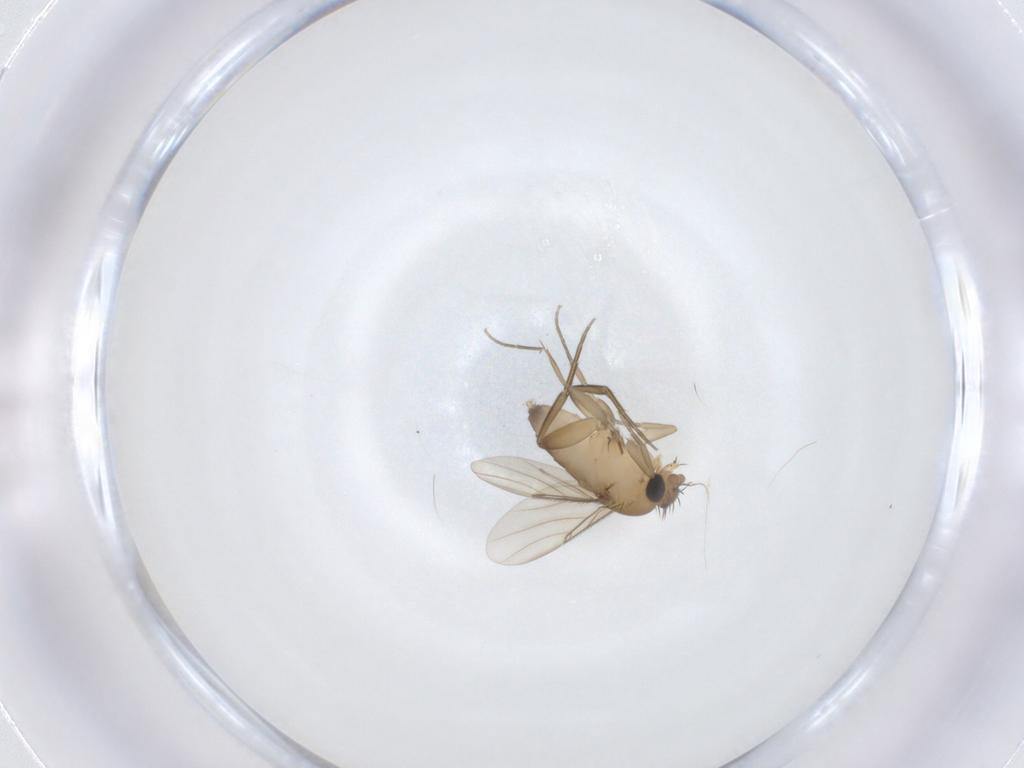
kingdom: Animalia
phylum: Arthropoda
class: Insecta
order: Diptera
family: Phoridae
